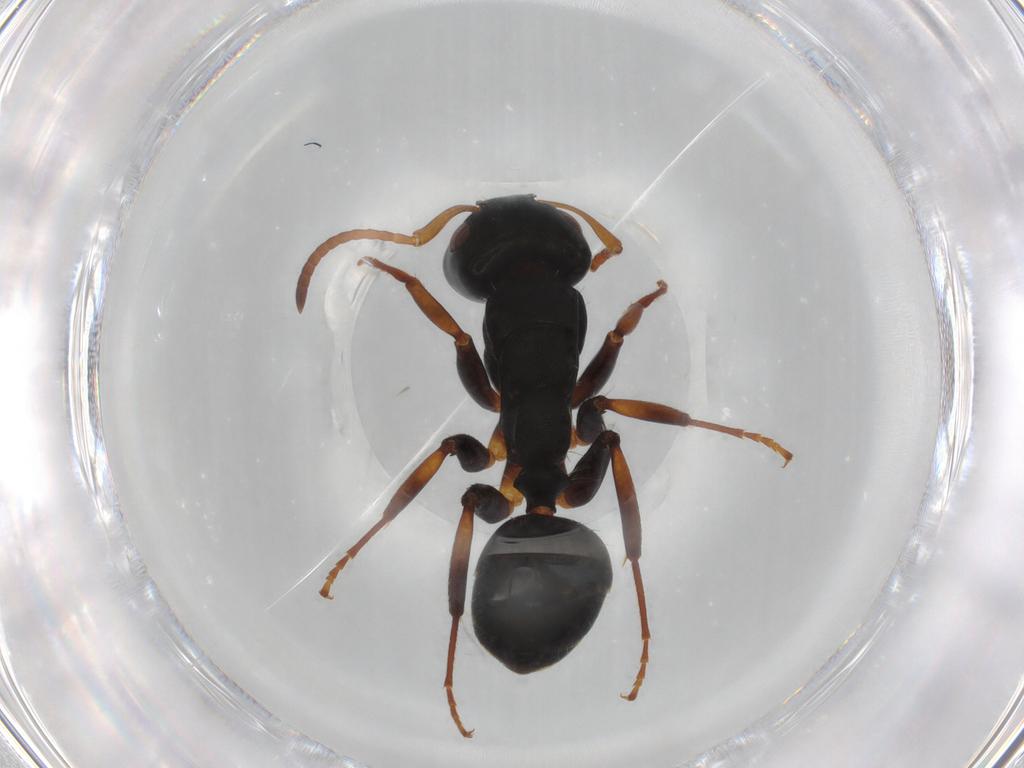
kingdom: Animalia
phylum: Arthropoda
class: Insecta
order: Hymenoptera
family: Formicidae
